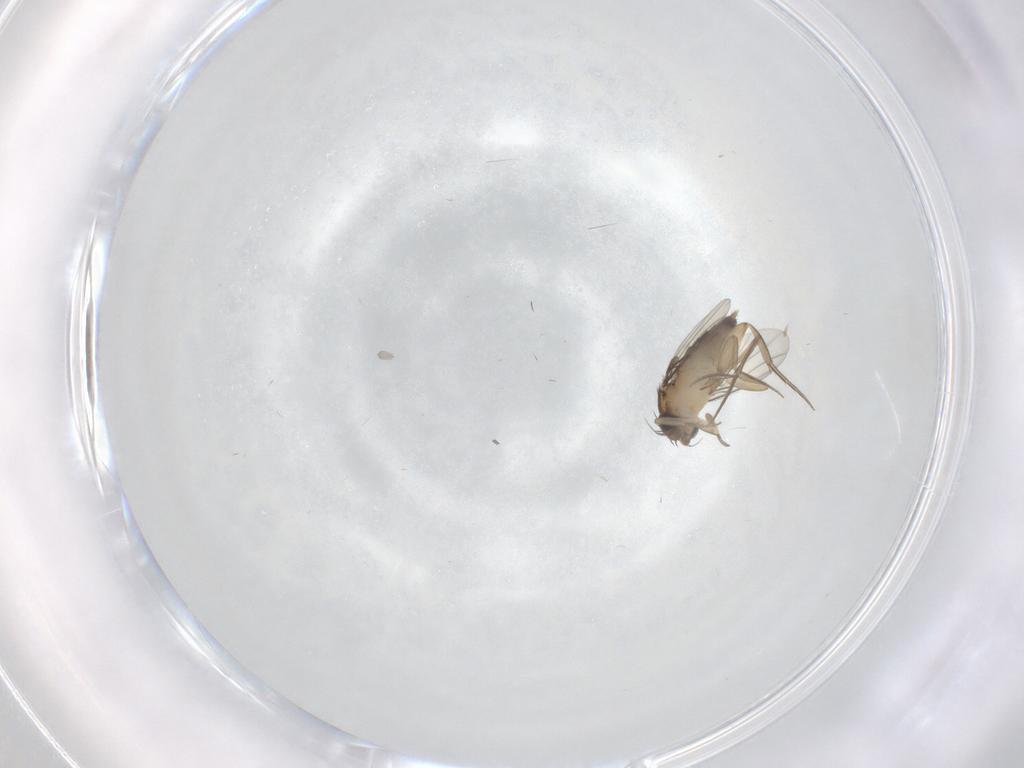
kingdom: Animalia
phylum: Arthropoda
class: Insecta
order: Diptera
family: Phoridae
